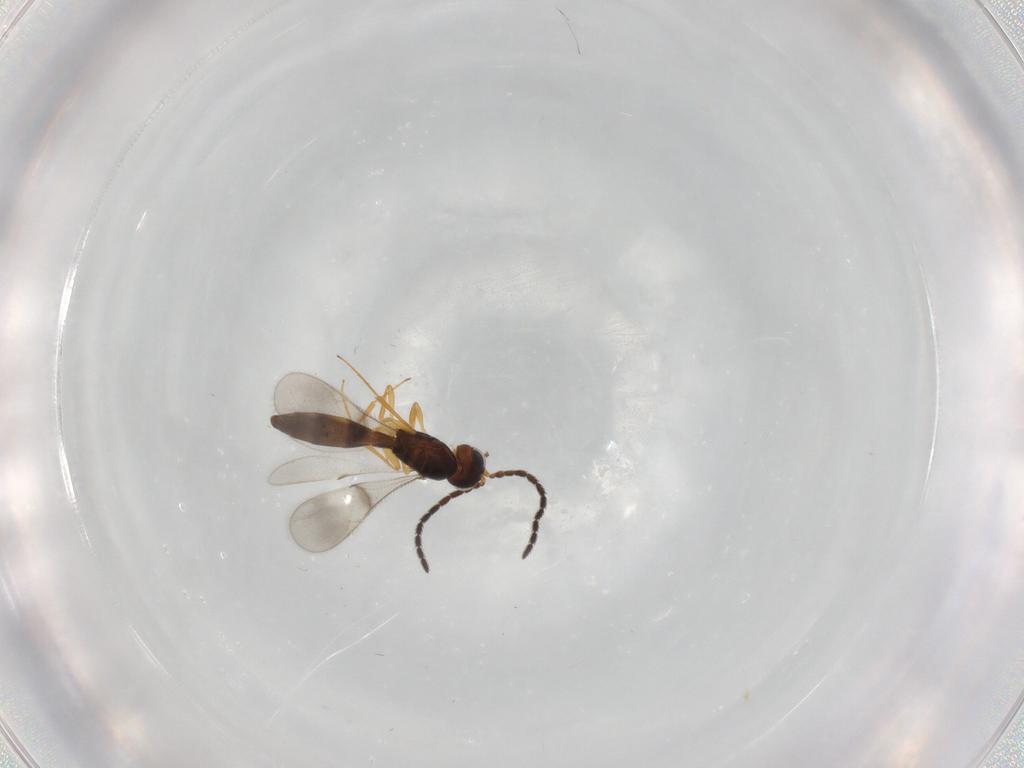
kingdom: Animalia
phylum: Arthropoda
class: Insecta
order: Hymenoptera
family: Scelionidae
